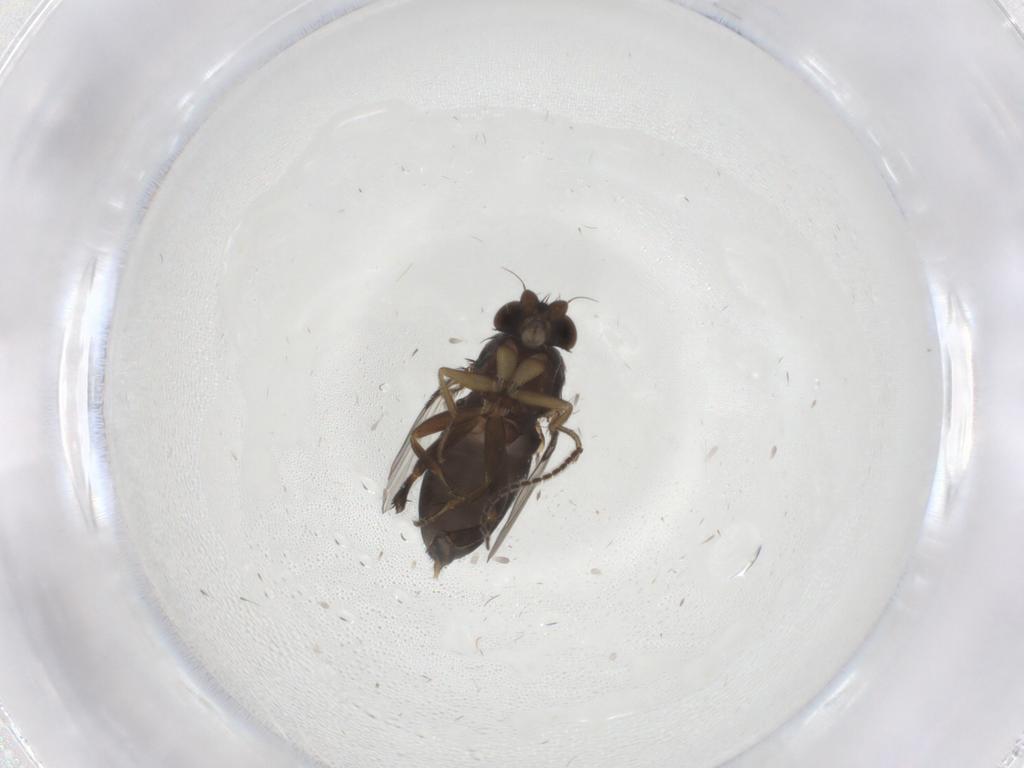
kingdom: Animalia
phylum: Arthropoda
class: Insecta
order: Diptera
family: Phoridae
